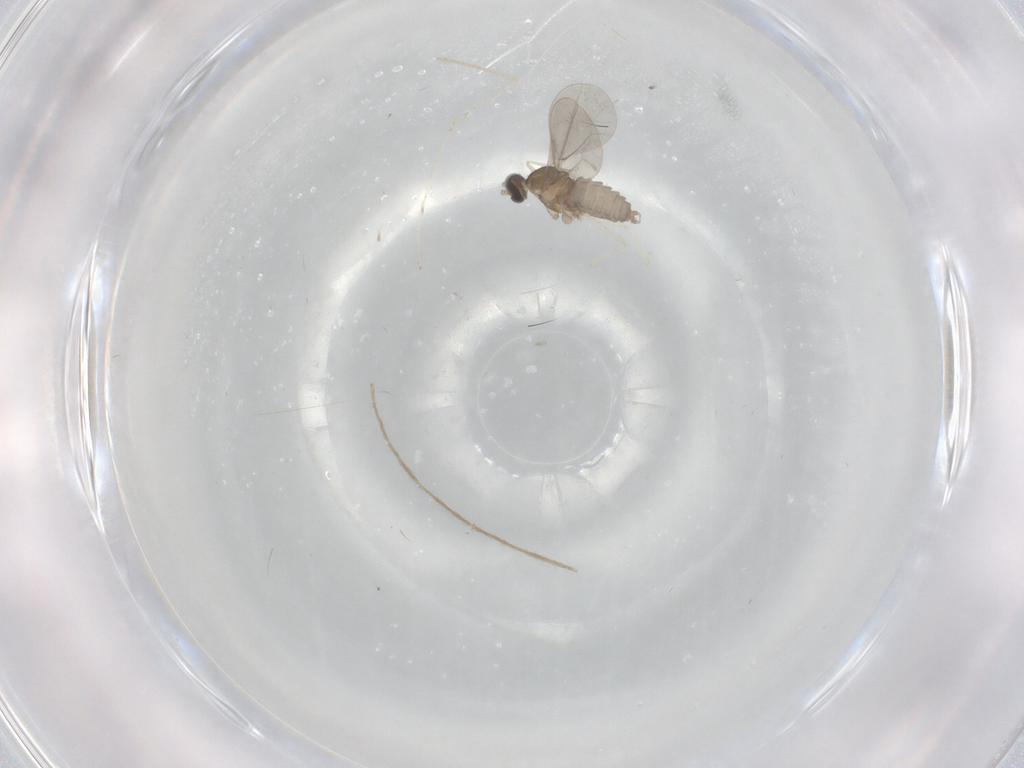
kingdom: Animalia
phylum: Arthropoda
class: Insecta
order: Diptera
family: Cecidomyiidae
